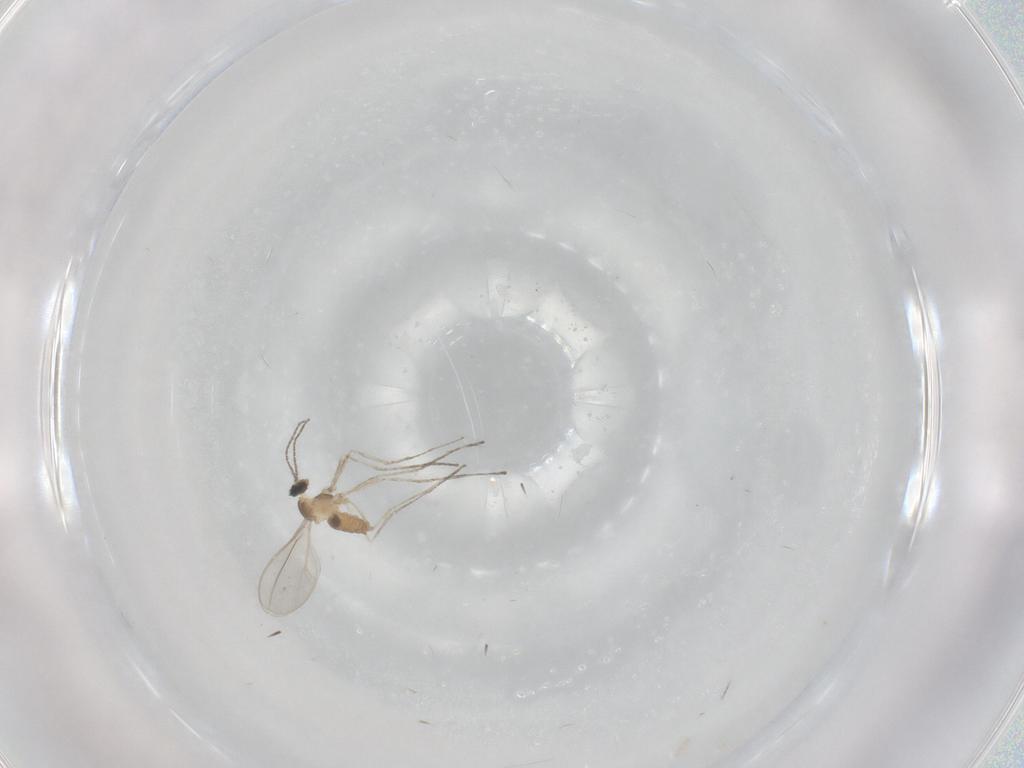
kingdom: Animalia
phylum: Arthropoda
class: Insecta
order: Diptera
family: Cecidomyiidae
